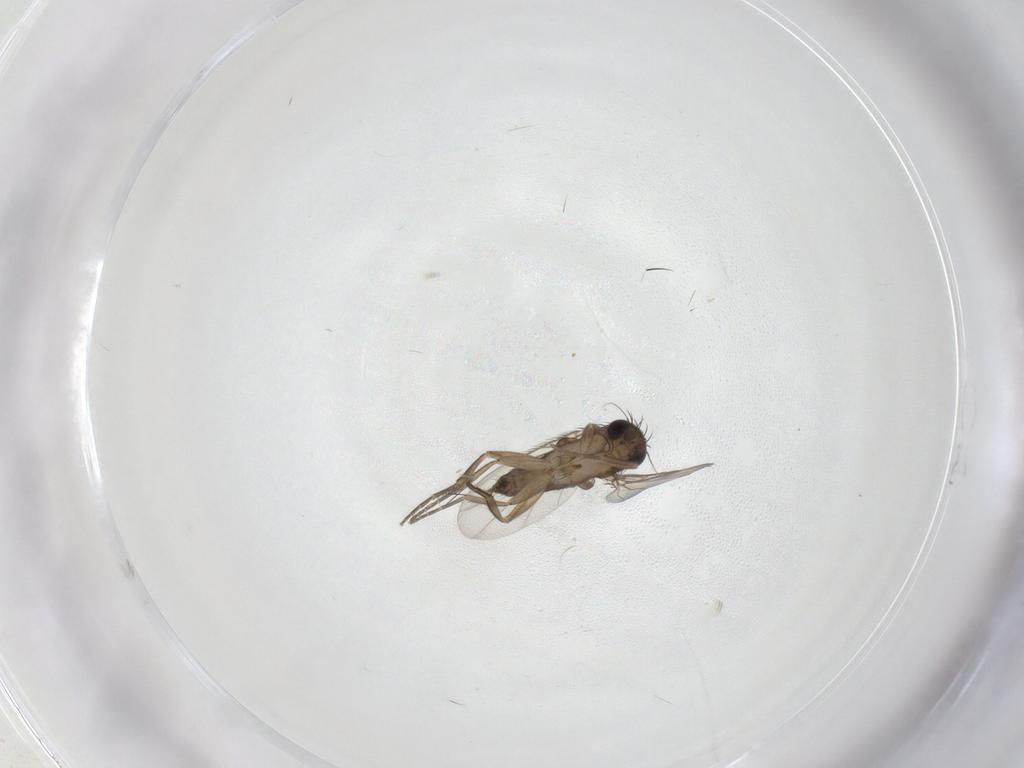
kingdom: Animalia
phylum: Arthropoda
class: Insecta
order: Diptera
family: Phoridae
